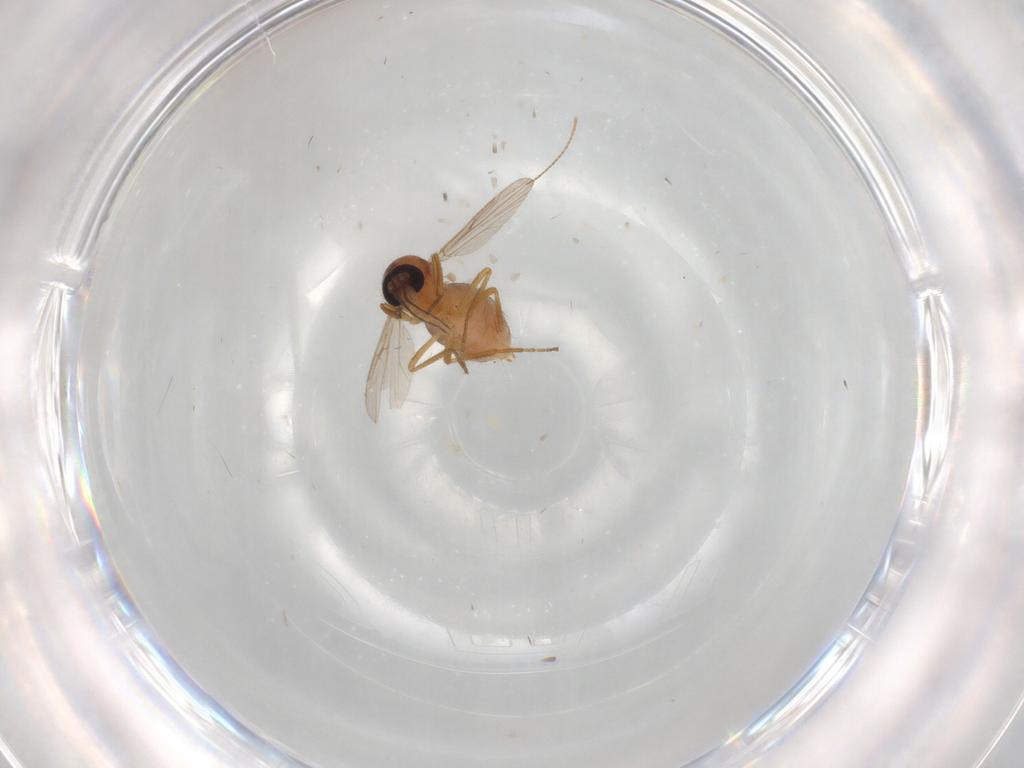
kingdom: Animalia
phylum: Arthropoda
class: Insecta
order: Diptera
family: Ceratopogonidae
